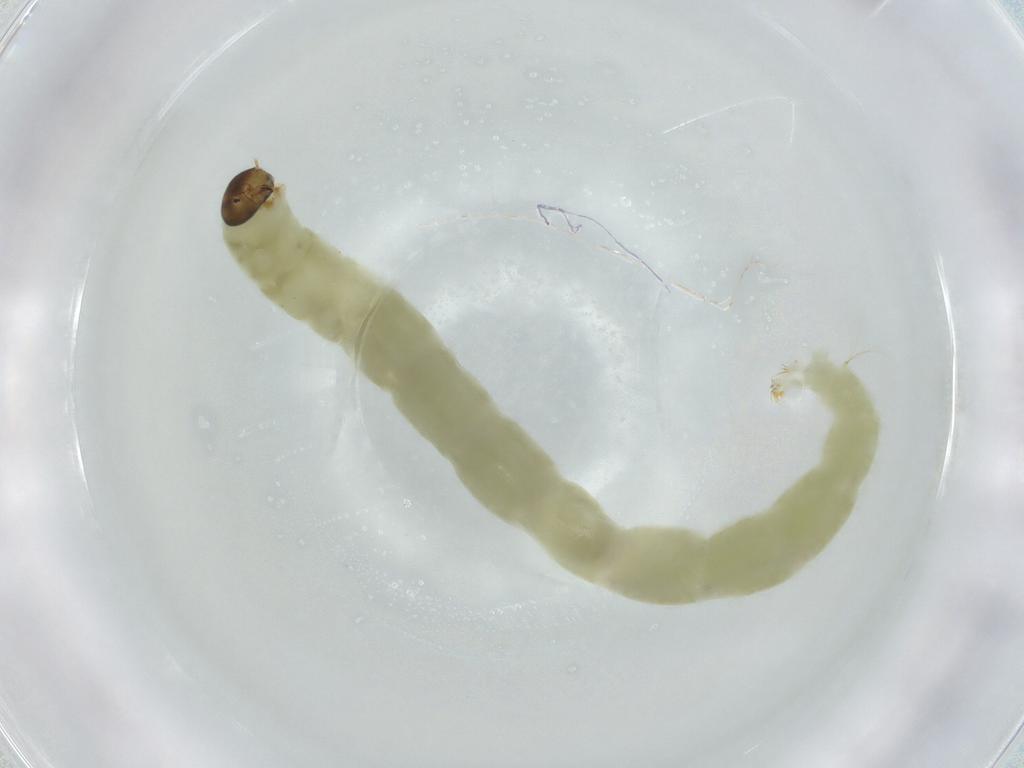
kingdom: Animalia
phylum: Arthropoda
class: Insecta
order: Diptera
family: Hybotidae
